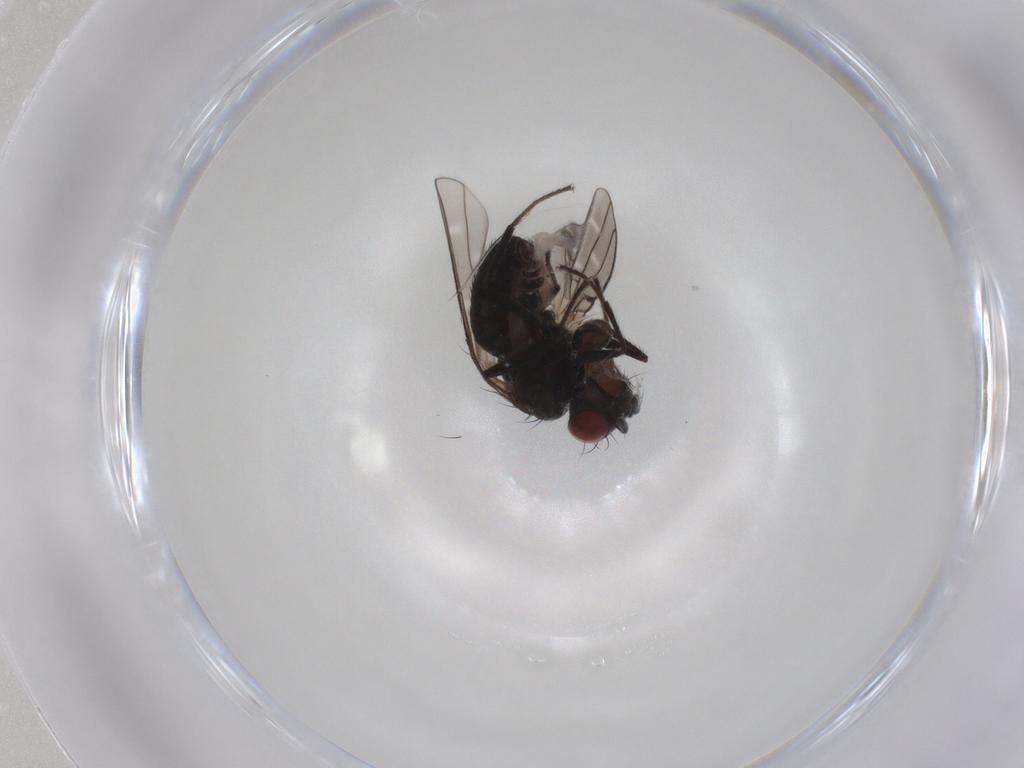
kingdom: Animalia
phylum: Arthropoda
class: Insecta
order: Diptera
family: Ephydridae
